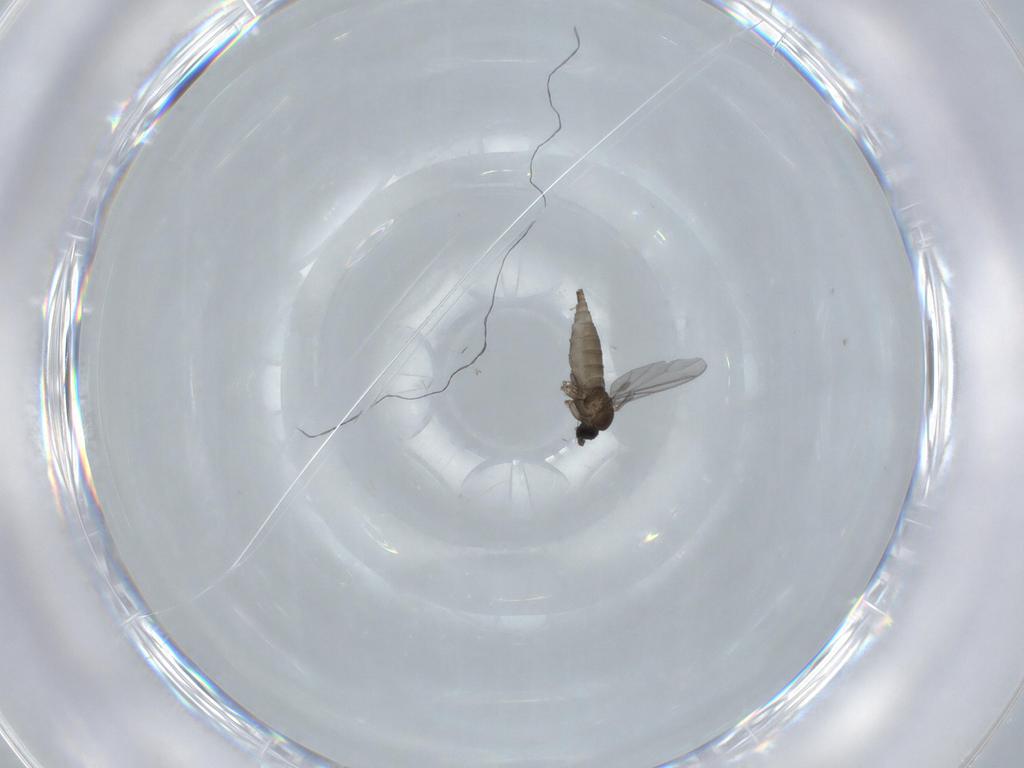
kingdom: Animalia
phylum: Arthropoda
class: Insecta
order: Diptera
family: Sciaridae
